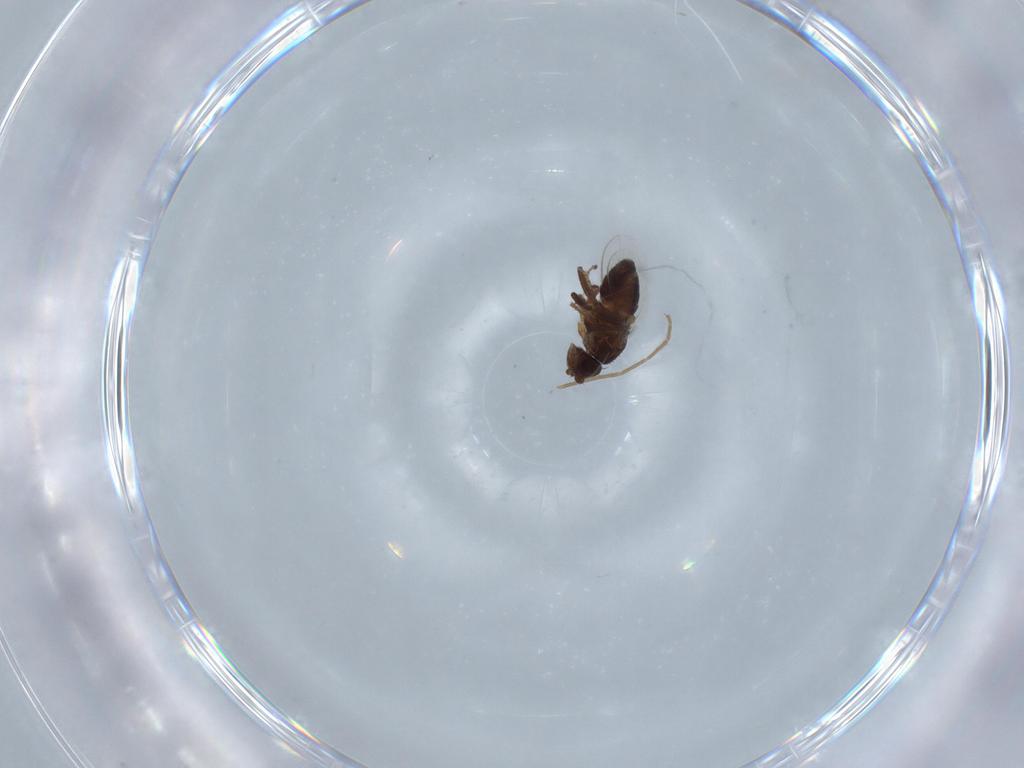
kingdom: Animalia
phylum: Arthropoda
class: Insecta
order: Diptera
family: Sphaeroceridae
